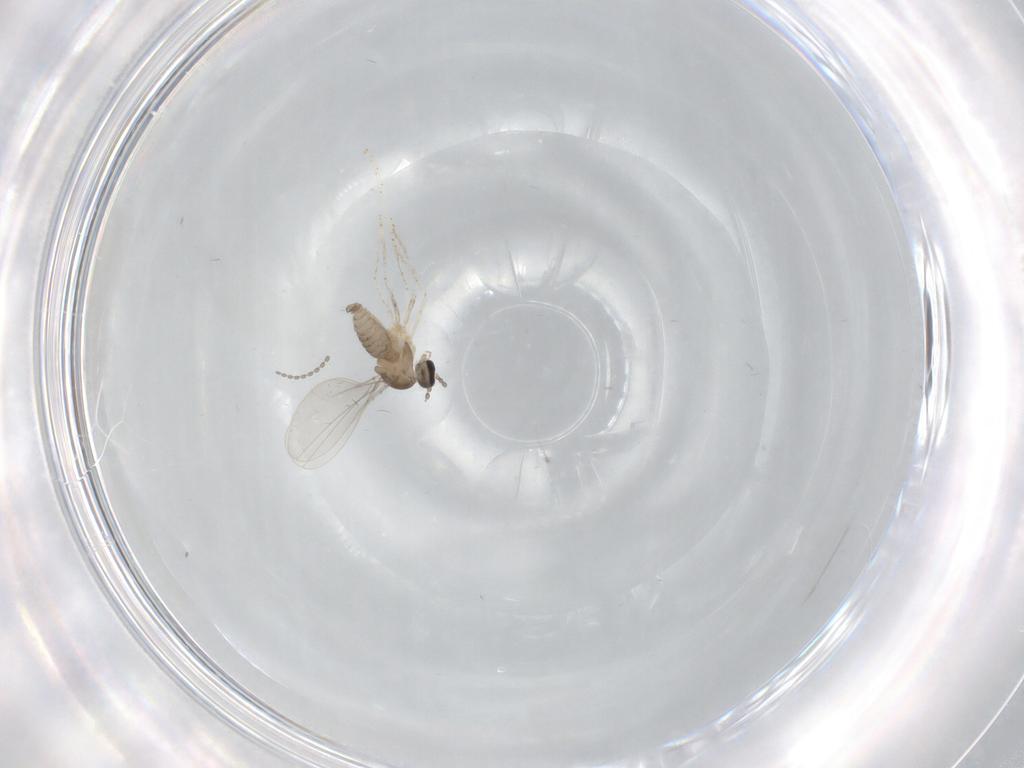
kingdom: Animalia
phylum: Arthropoda
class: Insecta
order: Diptera
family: Cecidomyiidae
